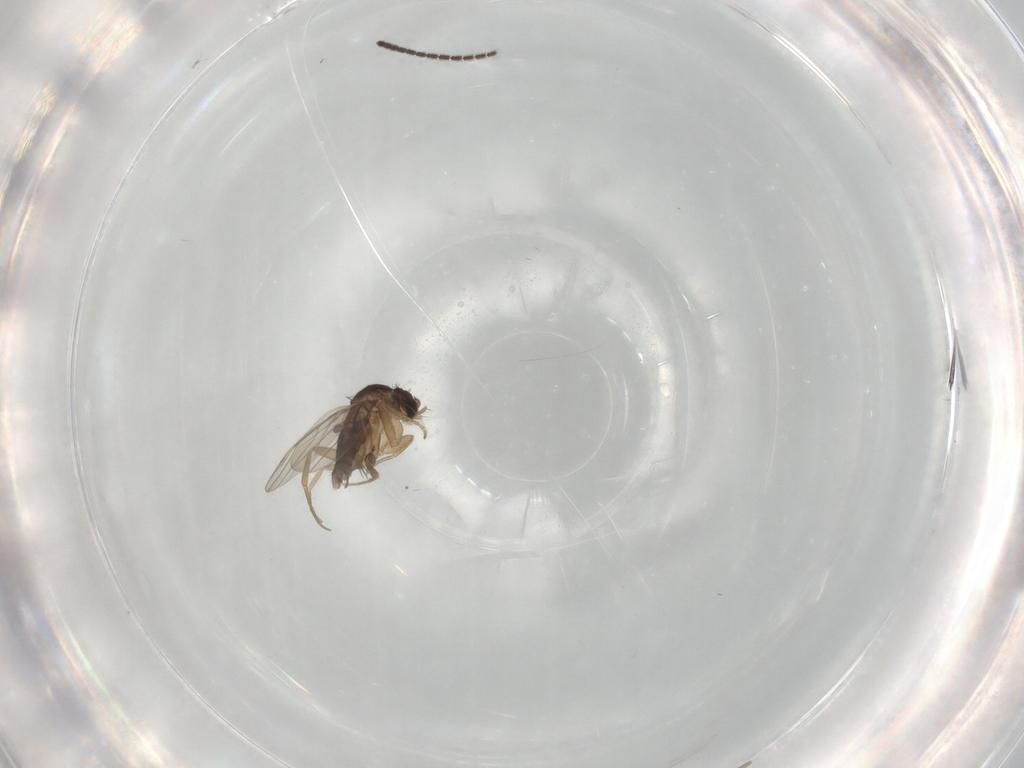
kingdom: Animalia
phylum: Arthropoda
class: Insecta
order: Diptera
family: Phoridae
